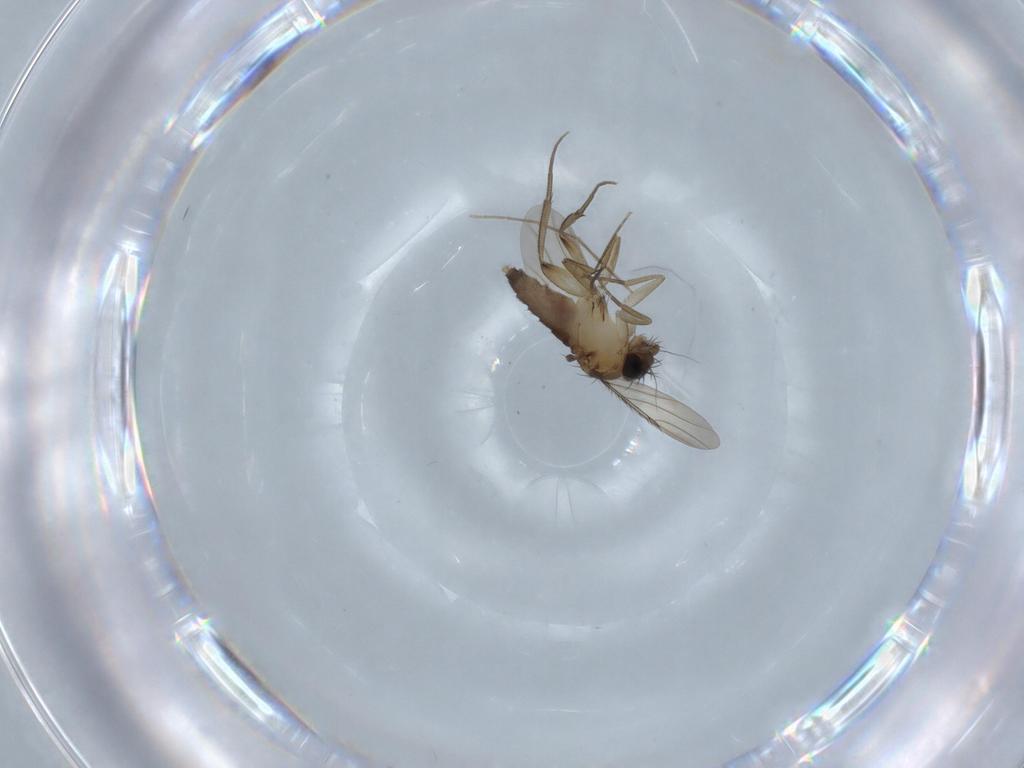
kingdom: Animalia
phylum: Arthropoda
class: Insecta
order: Diptera
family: Phoridae
